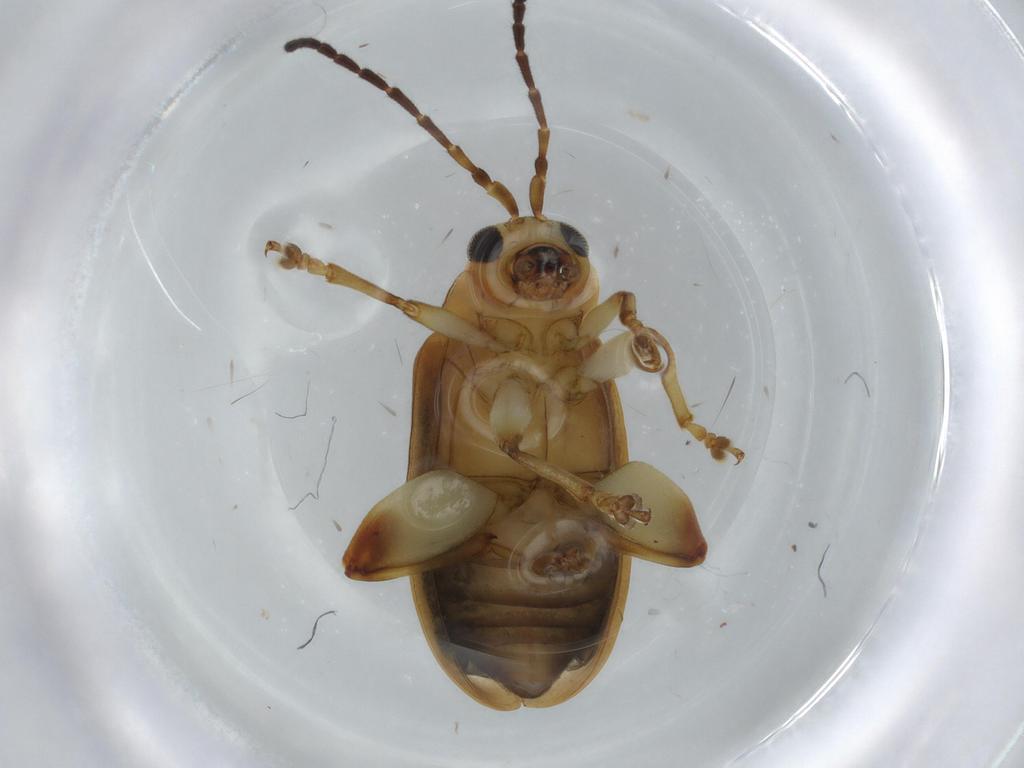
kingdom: Animalia
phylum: Arthropoda
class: Insecta
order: Coleoptera
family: Chrysomelidae
